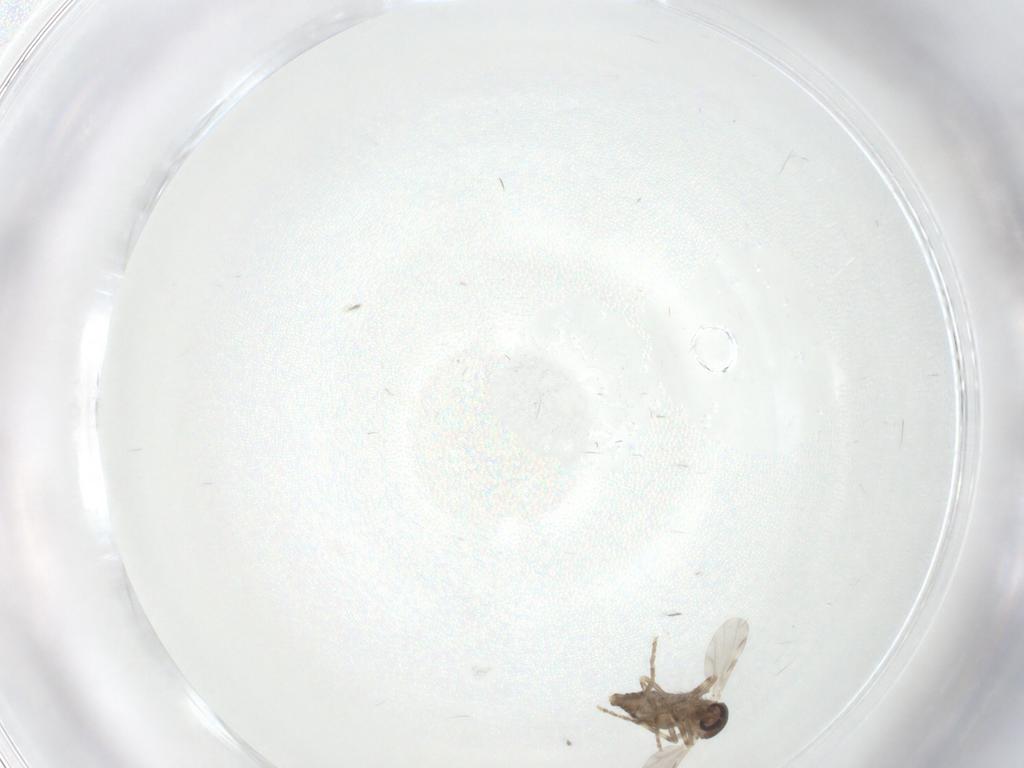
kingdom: Animalia
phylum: Arthropoda
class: Insecta
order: Diptera
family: Ceratopogonidae
